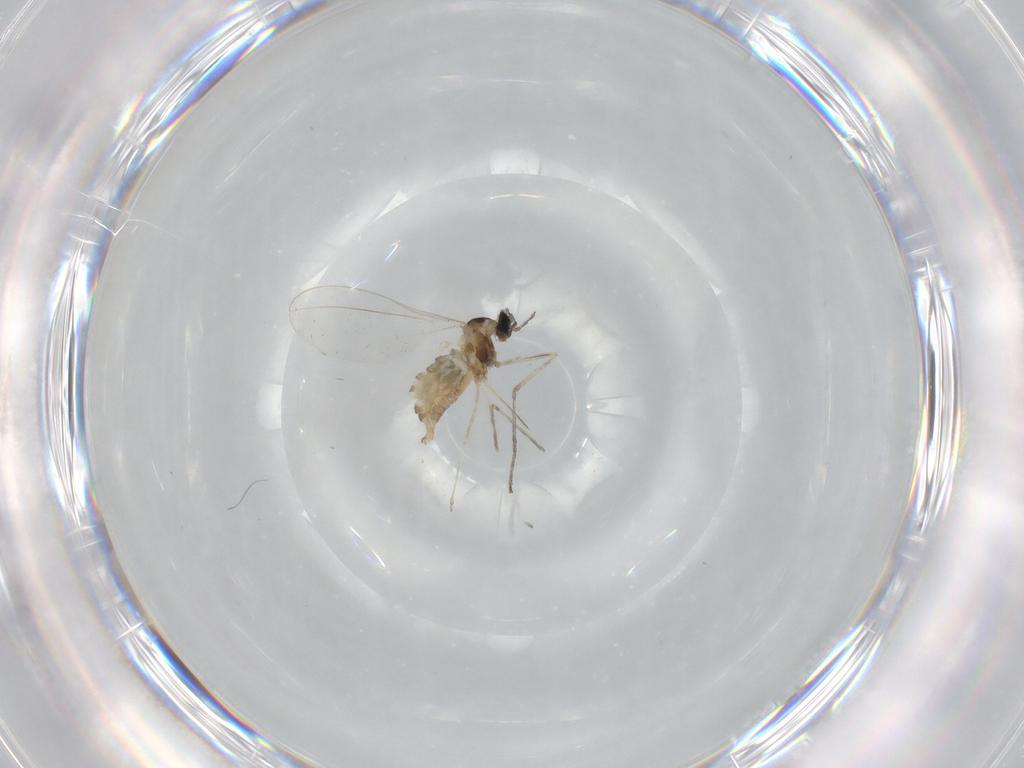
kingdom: Animalia
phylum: Arthropoda
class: Insecta
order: Diptera
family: Cecidomyiidae
